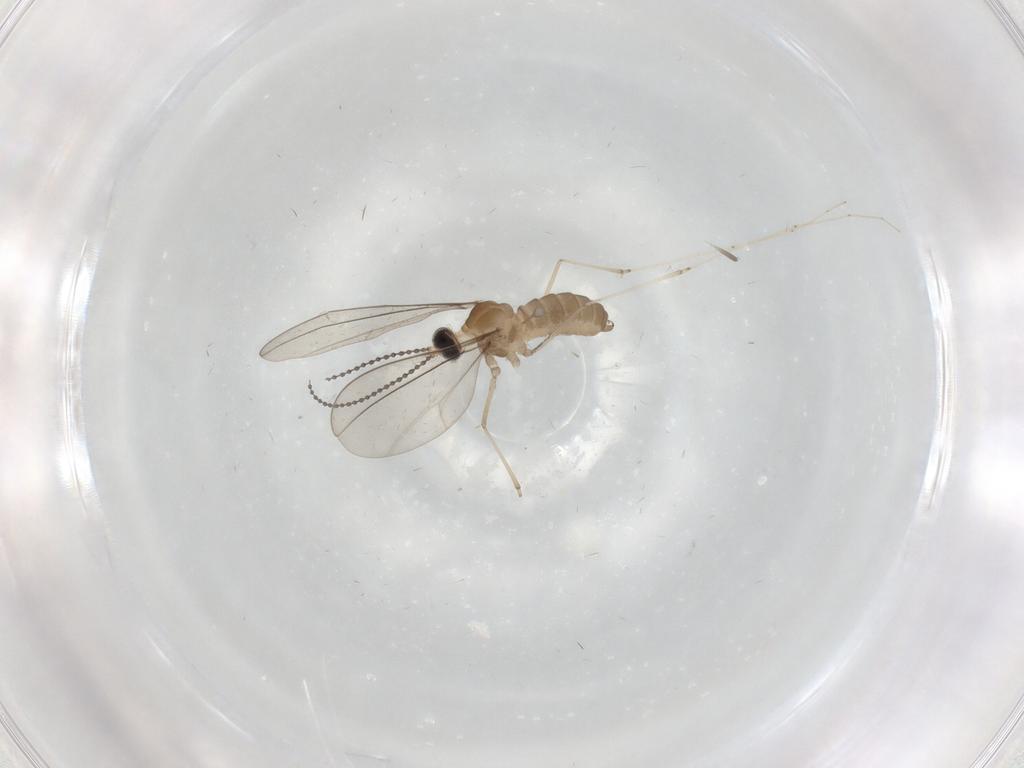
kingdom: Animalia
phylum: Arthropoda
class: Insecta
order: Diptera
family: Cecidomyiidae
